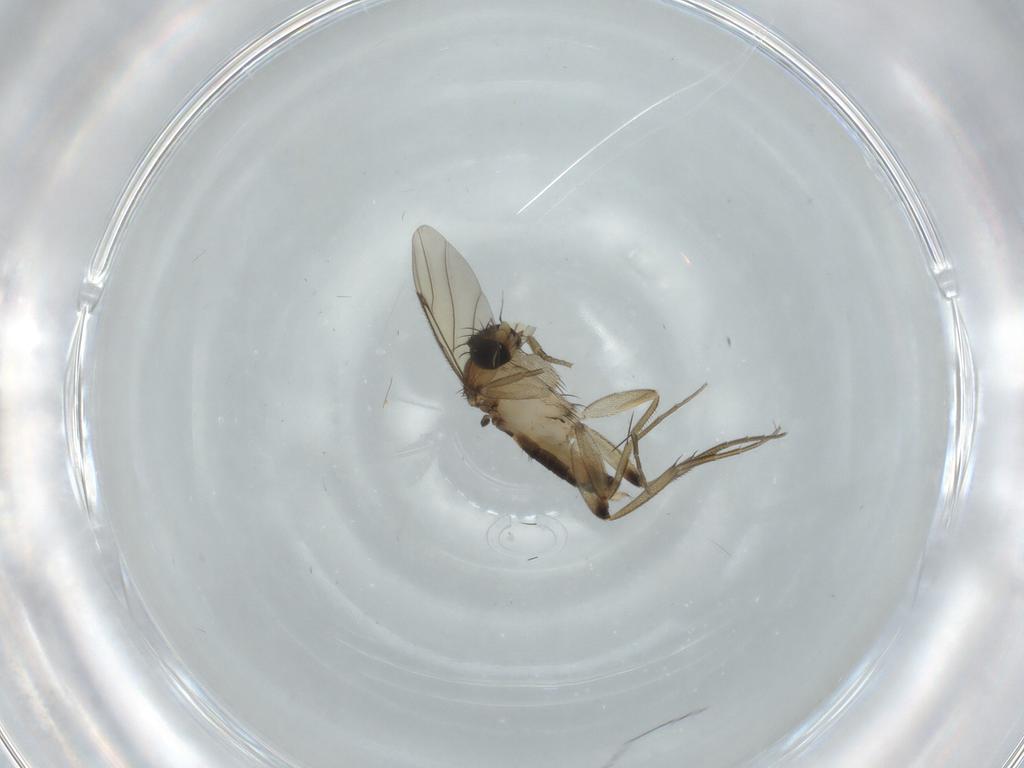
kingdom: Animalia
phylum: Arthropoda
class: Insecta
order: Diptera
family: Phoridae
